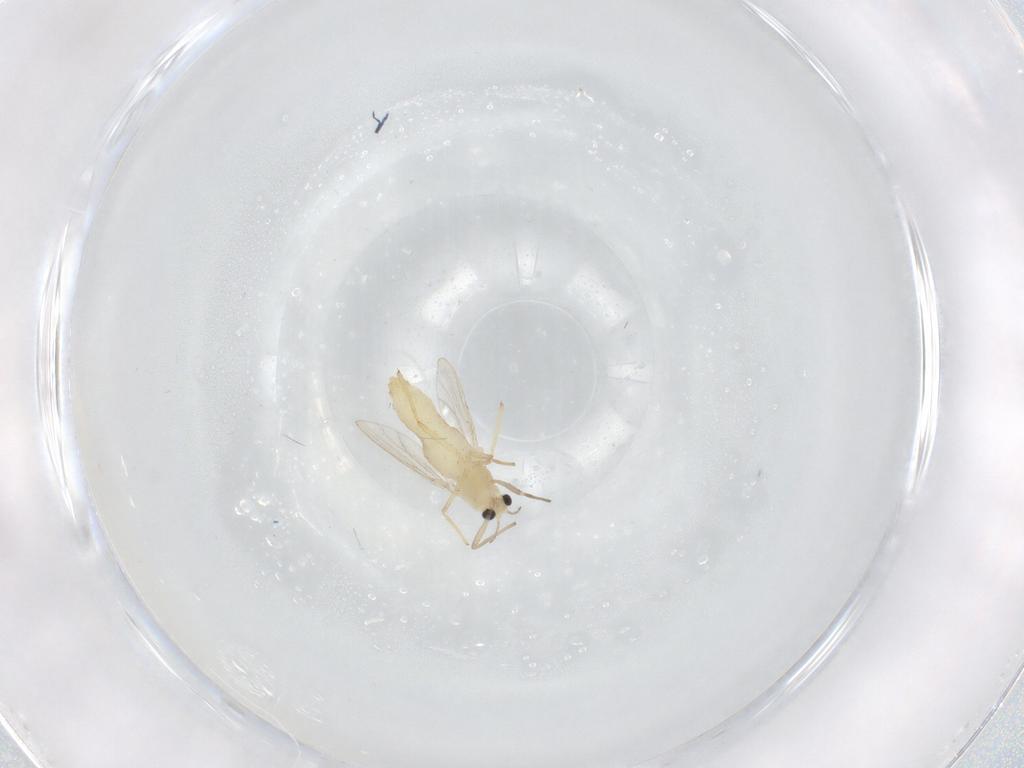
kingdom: Animalia
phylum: Arthropoda
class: Insecta
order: Diptera
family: Chironomidae
